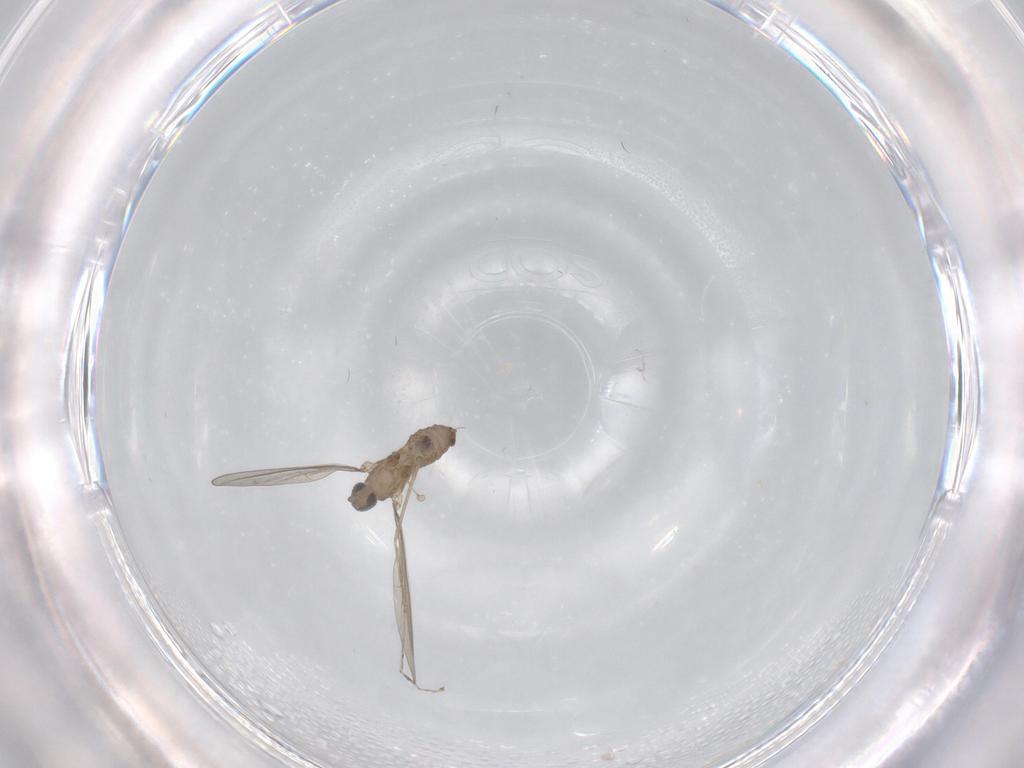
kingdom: Animalia
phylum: Arthropoda
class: Insecta
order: Diptera
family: Cecidomyiidae
